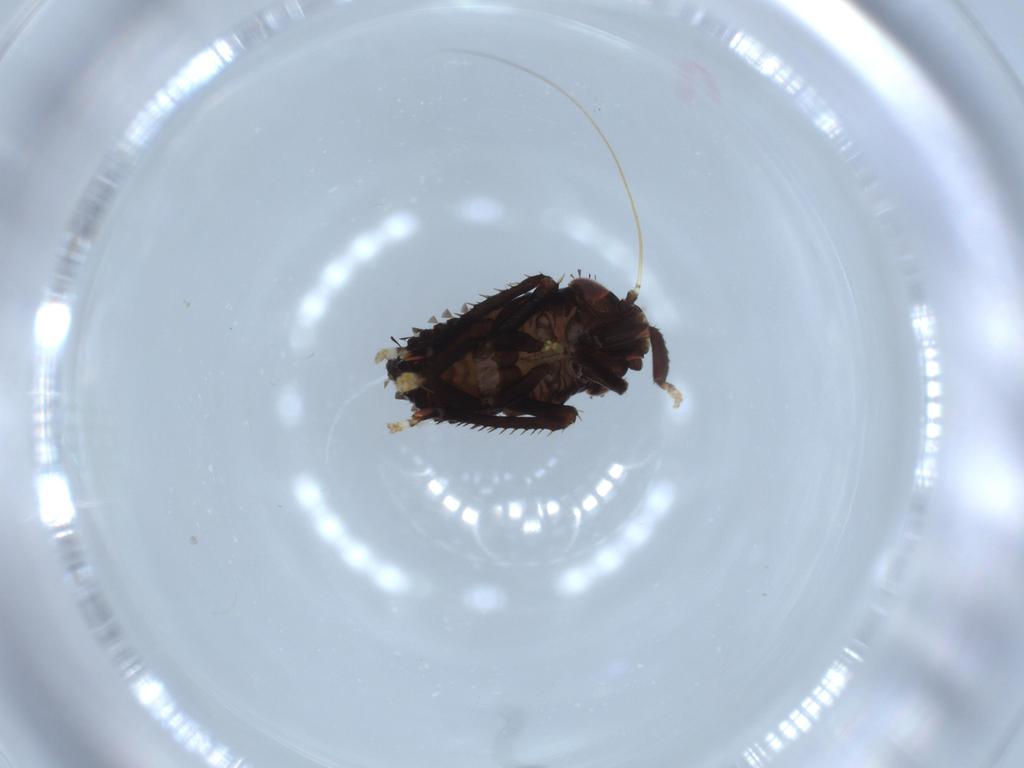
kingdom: Animalia
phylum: Arthropoda
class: Insecta
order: Hemiptera
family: Cicadellidae
